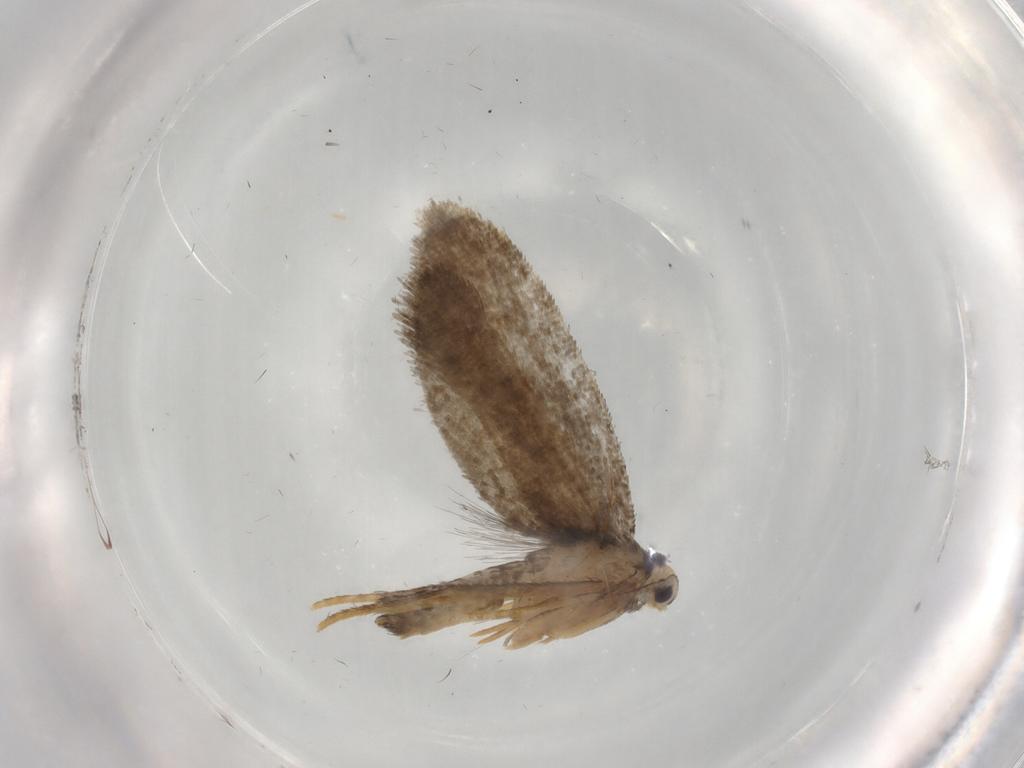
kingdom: Animalia
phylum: Arthropoda
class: Insecta
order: Lepidoptera
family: Psychidae
